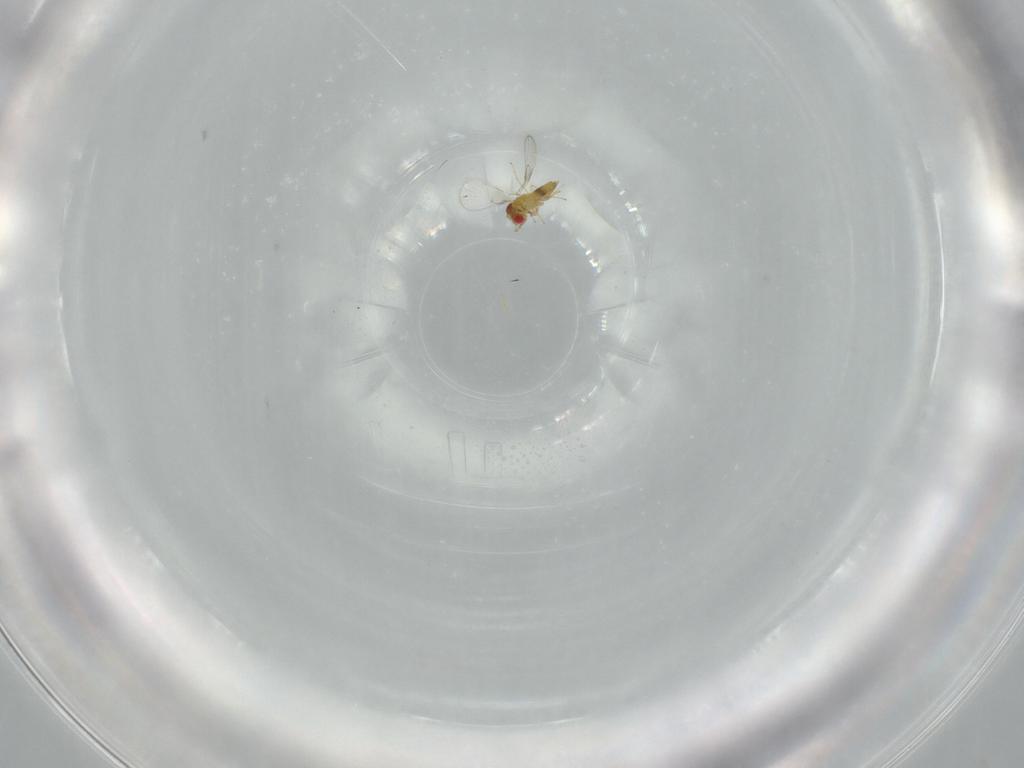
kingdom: Animalia
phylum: Arthropoda
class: Insecta
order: Hymenoptera
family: Trichogrammatidae
